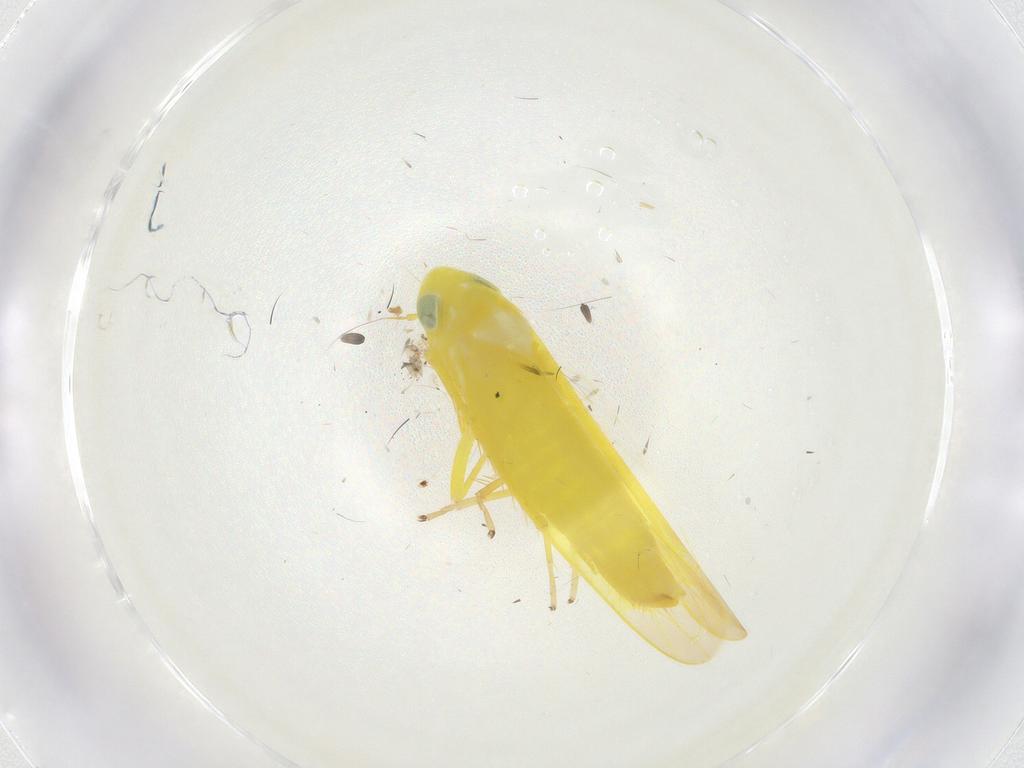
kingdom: Animalia
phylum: Arthropoda
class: Insecta
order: Hemiptera
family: Cicadellidae
